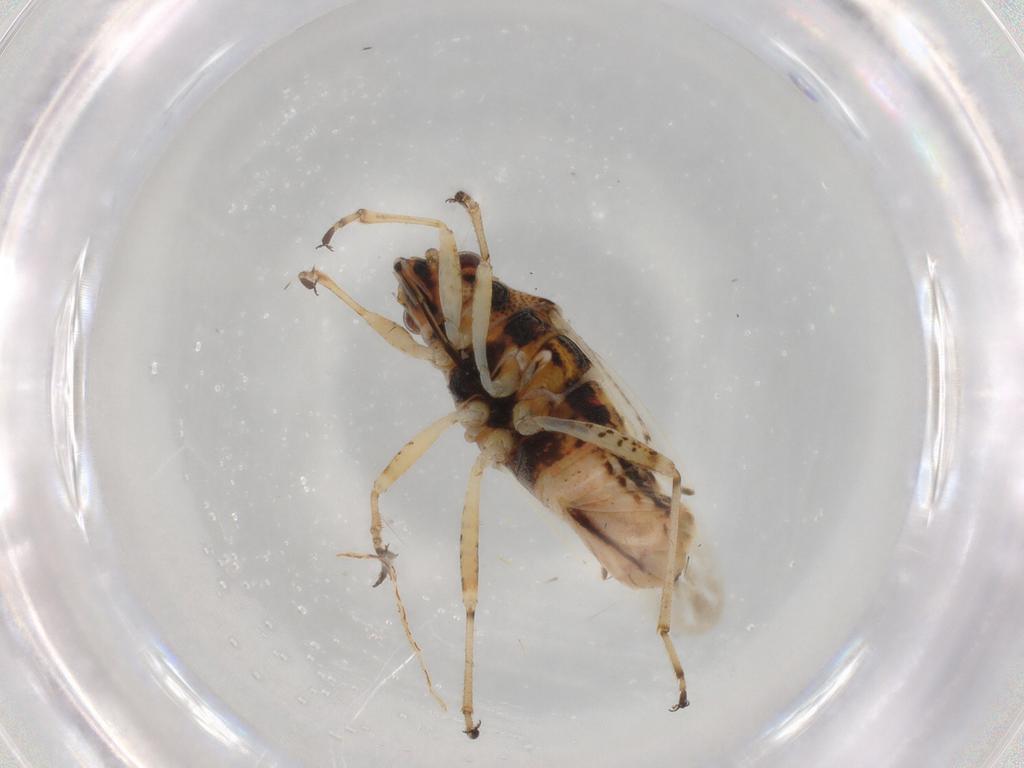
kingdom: Animalia
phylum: Arthropoda
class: Insecta
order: Hemiptera
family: Lygaeidae
